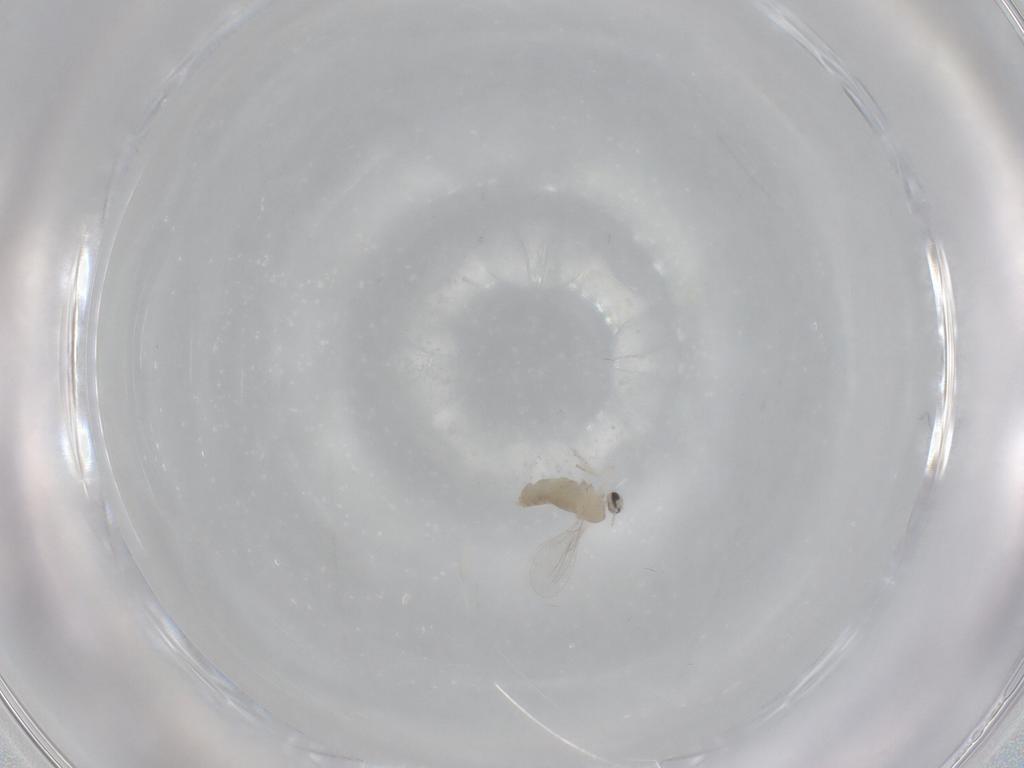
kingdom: Animalia
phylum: Arthropoda
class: Insecta
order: Diptera
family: Cecidomyiidae
